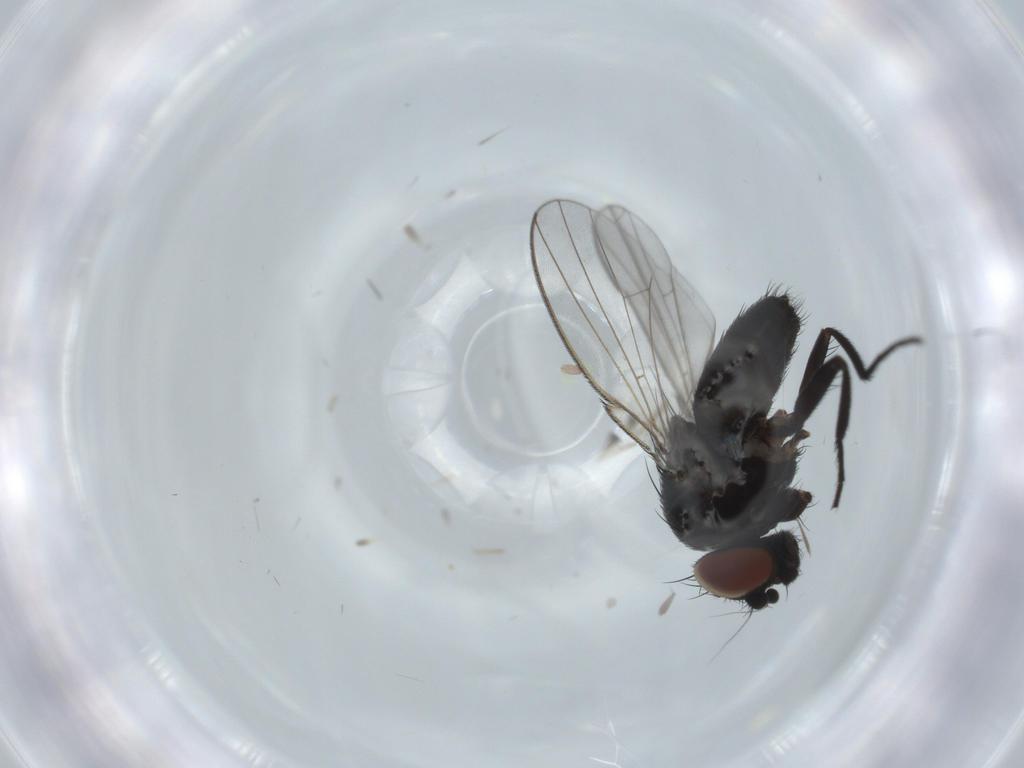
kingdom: Animalia
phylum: Arthropoda
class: Insecta
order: Diptera
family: Milichiidae
